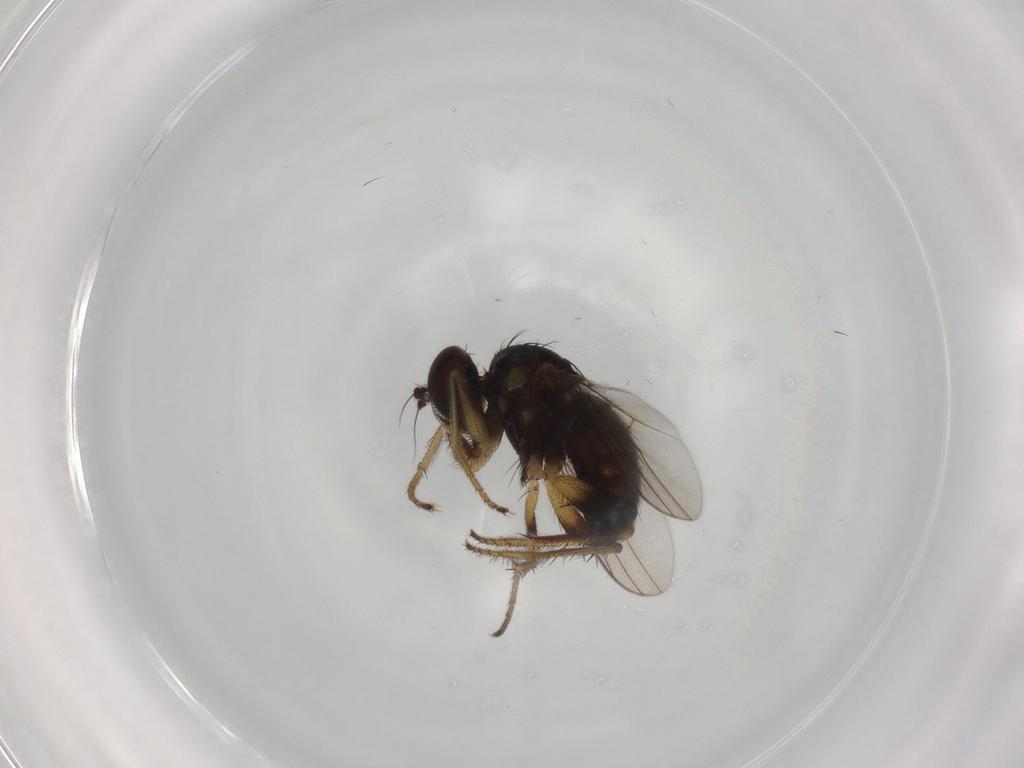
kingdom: Animalia
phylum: Arthropoda
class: Insecta
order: Diptera
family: Dolichopodidae
